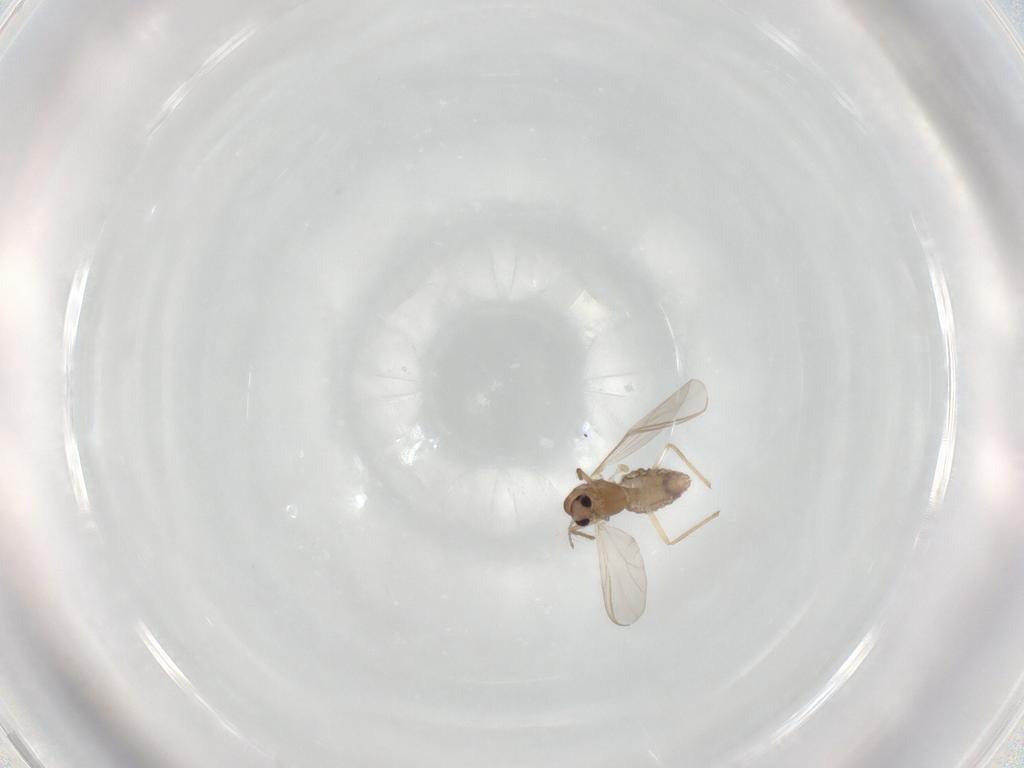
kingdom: Animalia
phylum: Arthropoda
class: Insecta
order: Diptera
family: Chironomidae
